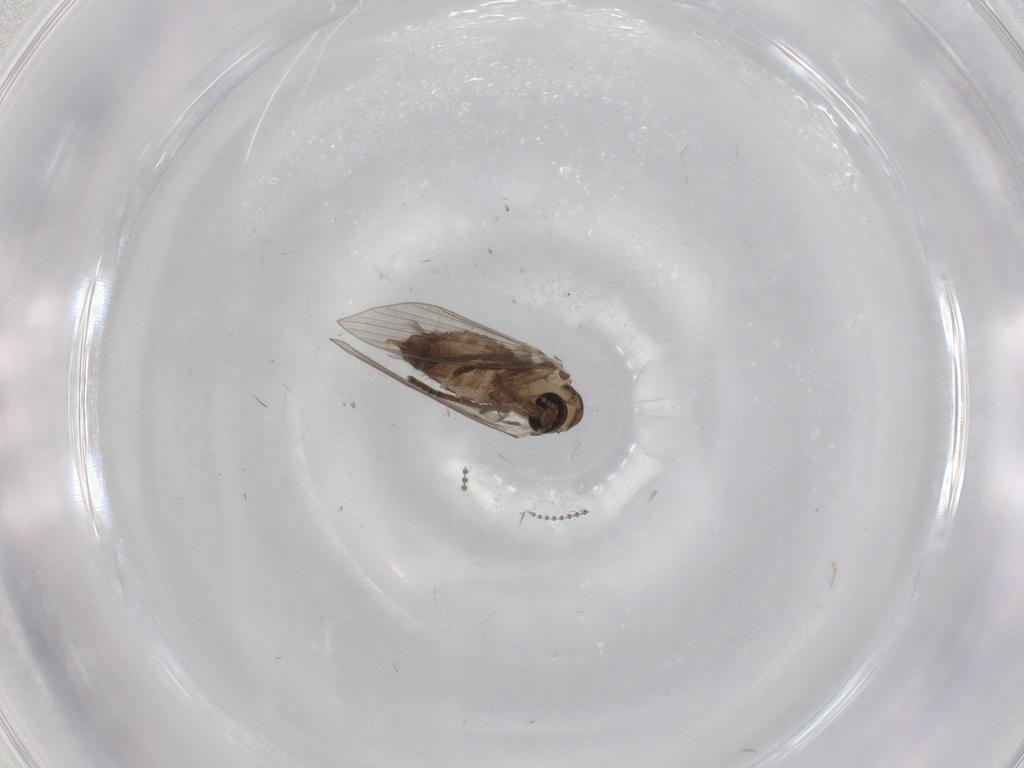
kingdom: Animalia
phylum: Arthropoda
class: Insecta
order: Diptera
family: Psychodidae
